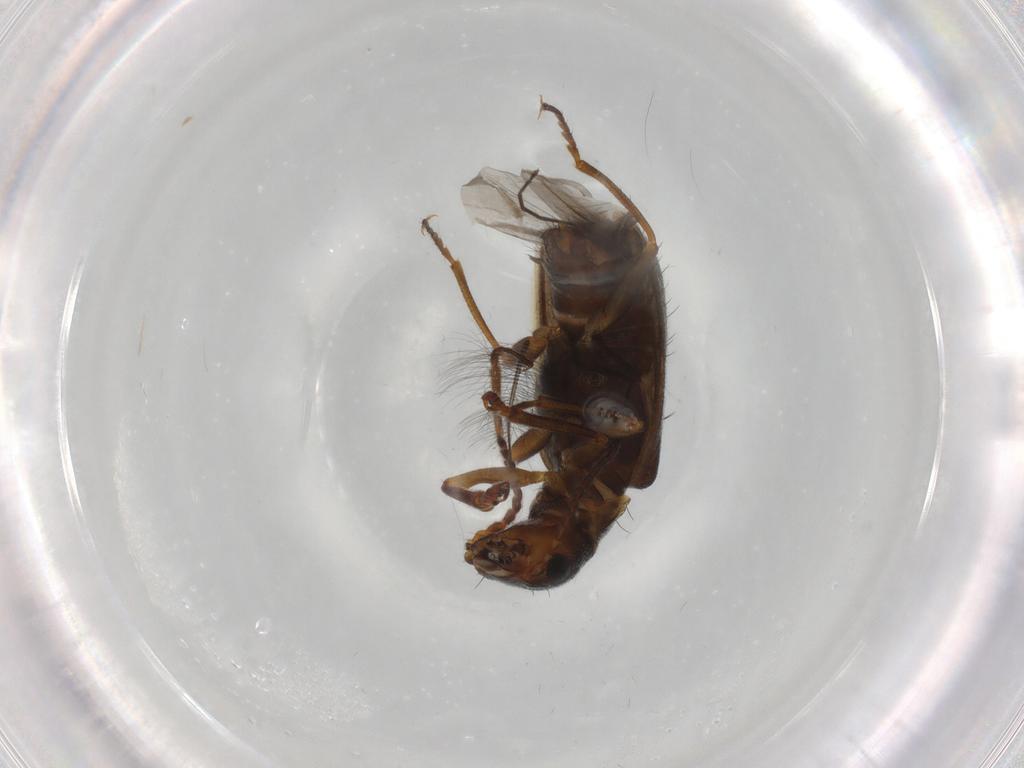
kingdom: Animalia
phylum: Arthropoda
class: Insecta
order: Coleoptera
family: Melyridae
